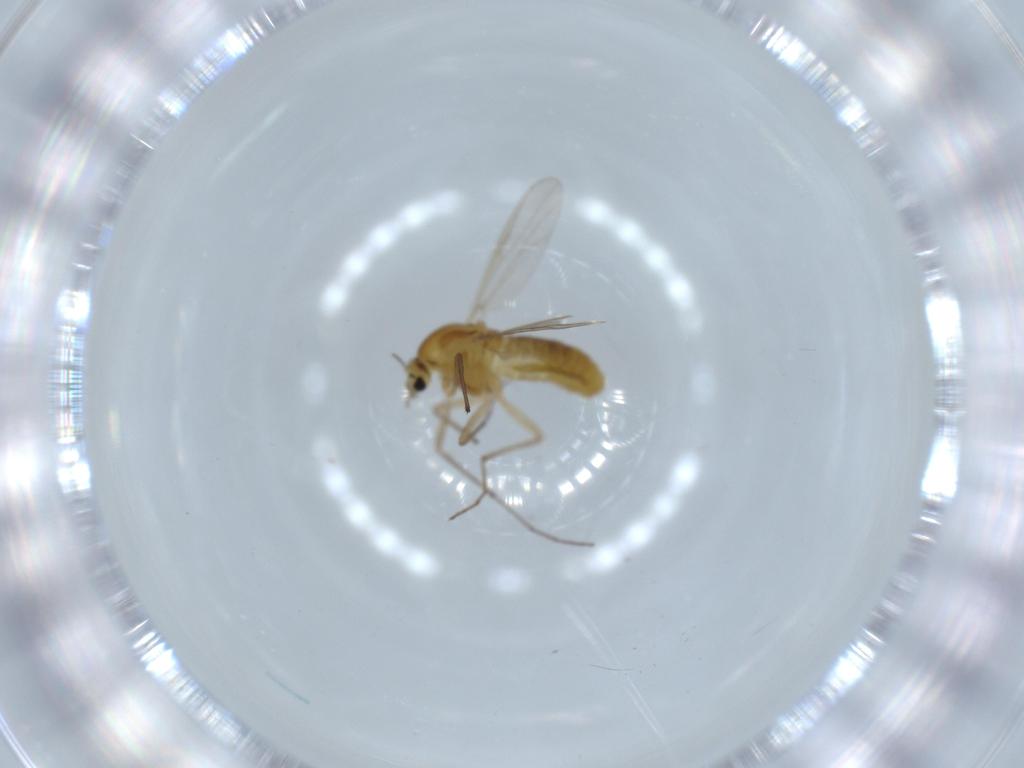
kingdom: Animalia
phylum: Arthropoda
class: Insecta
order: Diptera
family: Chironomidae
